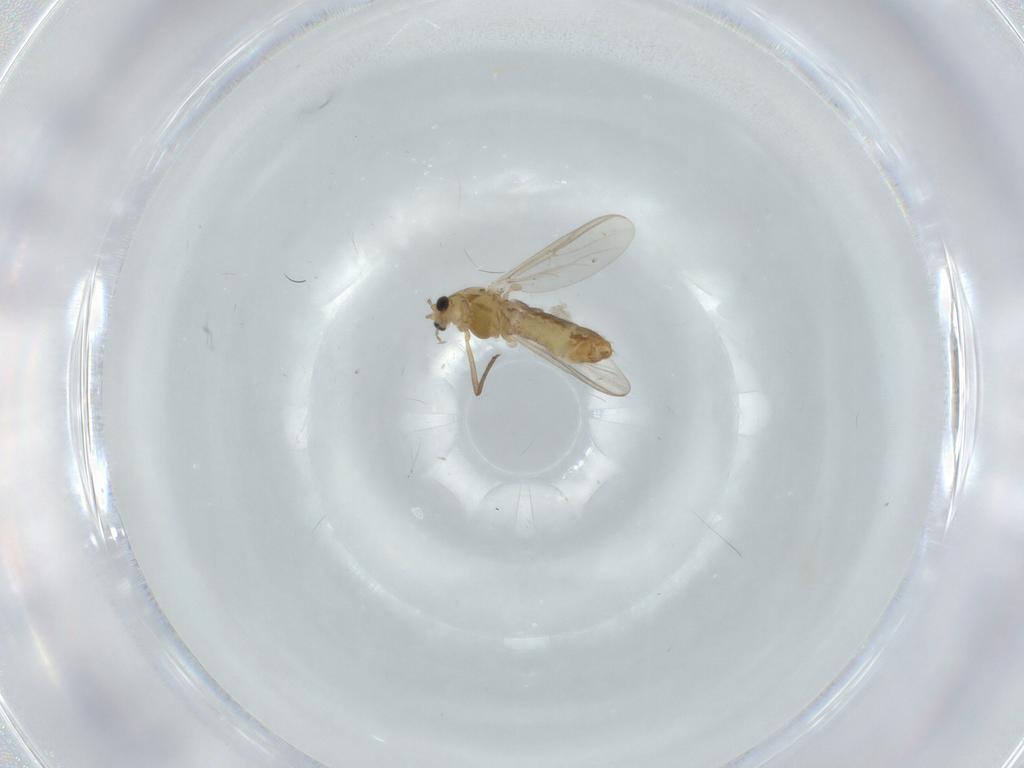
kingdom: Animalia
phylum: Arthropoda
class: Insecta
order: Diptera
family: Chironomidae
